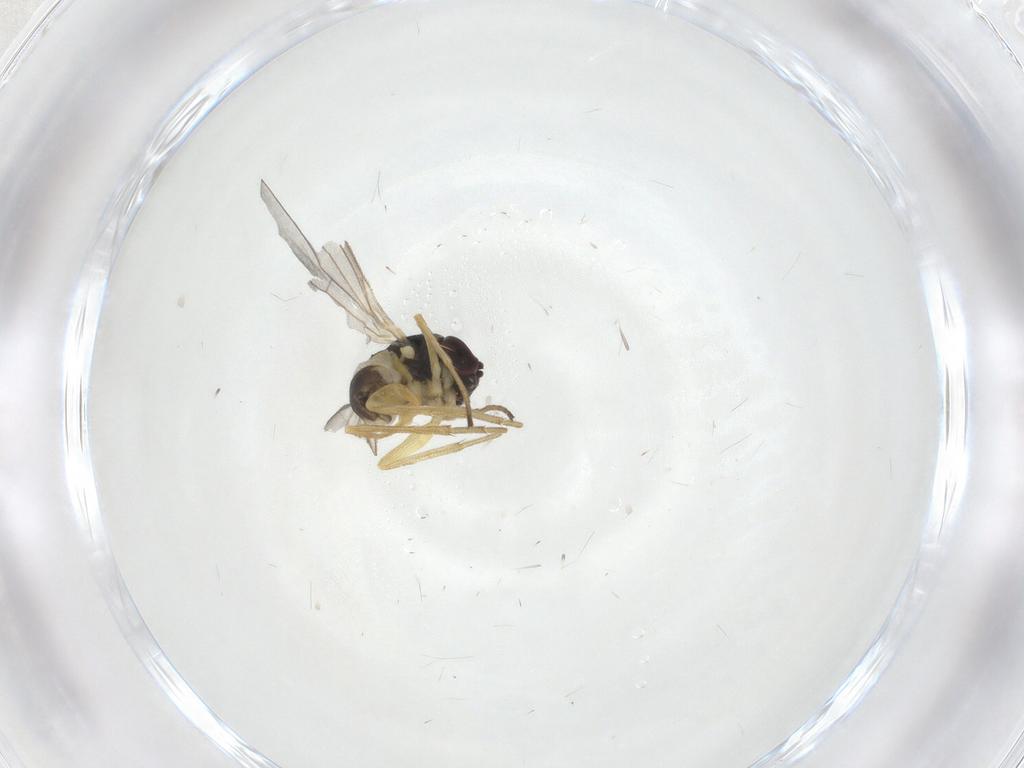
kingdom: Animalia
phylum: Arthropoda
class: Insecta
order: Diptera
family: Dolichopodidae
